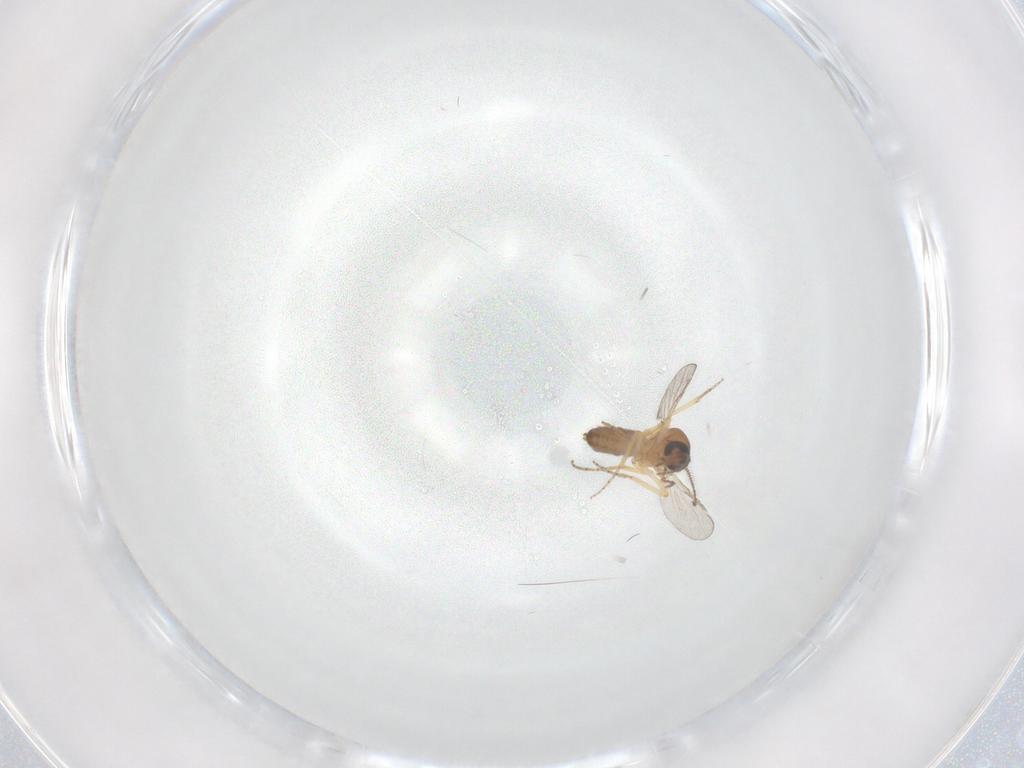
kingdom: Animalia
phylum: Arthropoda
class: Insecta
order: Diptera
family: Ceratopogonidae
